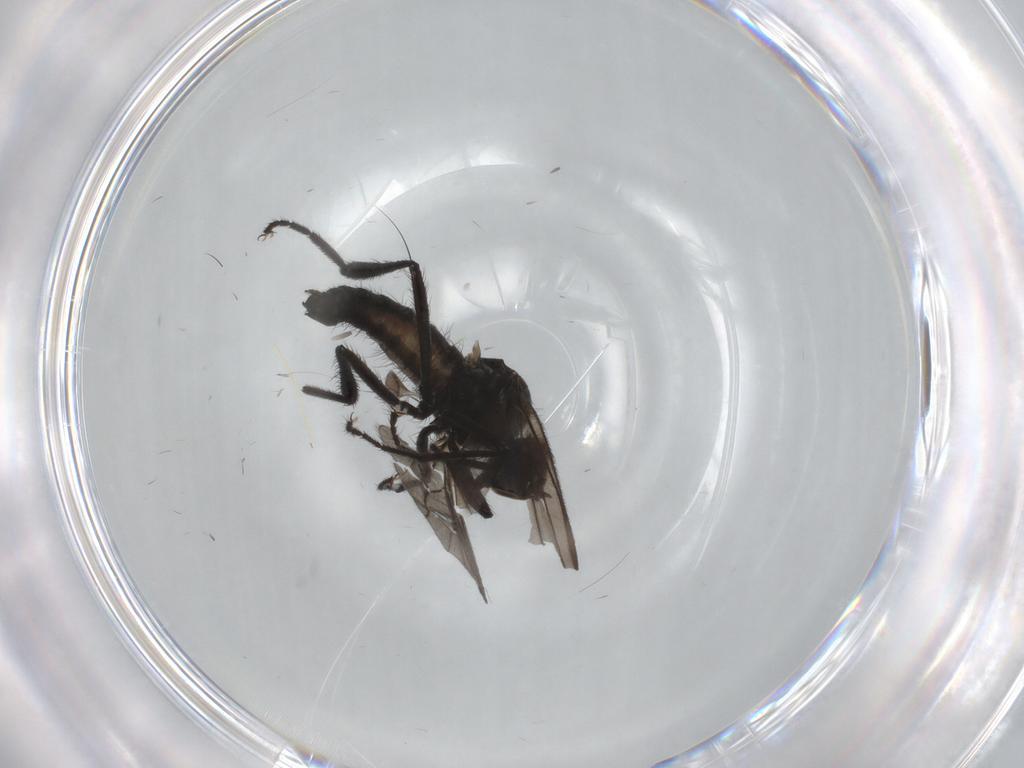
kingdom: Animalia
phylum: Arthropoda
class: Insecta
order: Diptera
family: Hybotidae
